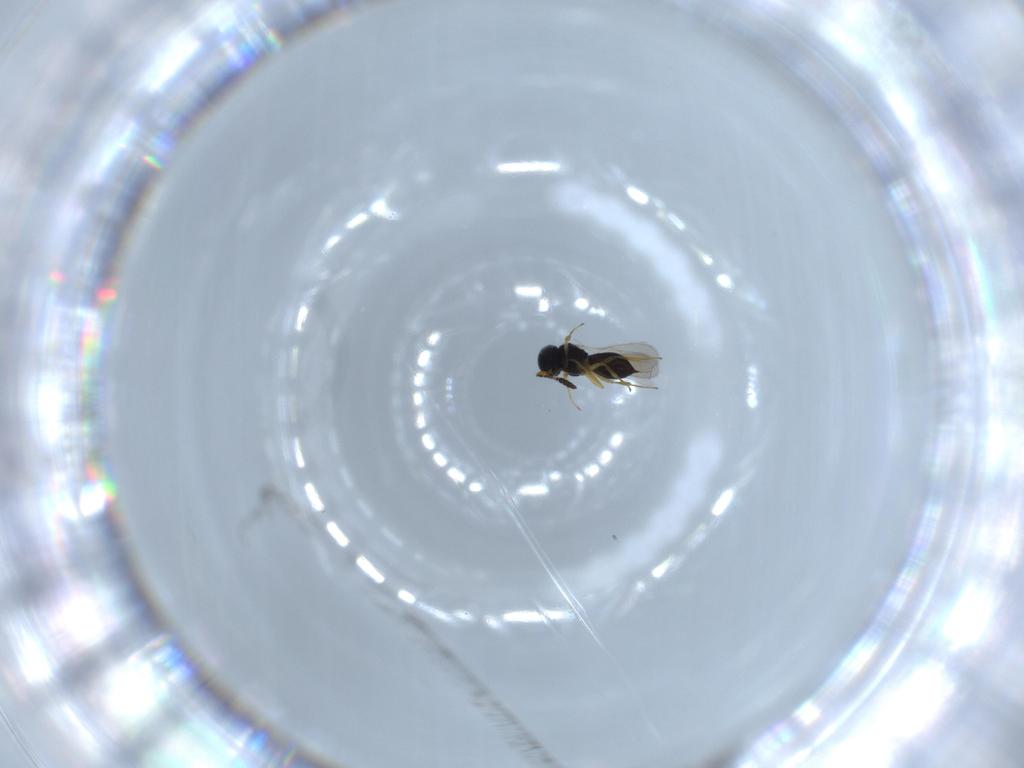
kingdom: Animalia
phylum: Arthropoda
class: Insecta
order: Hymenoptera
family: Scelionidae
